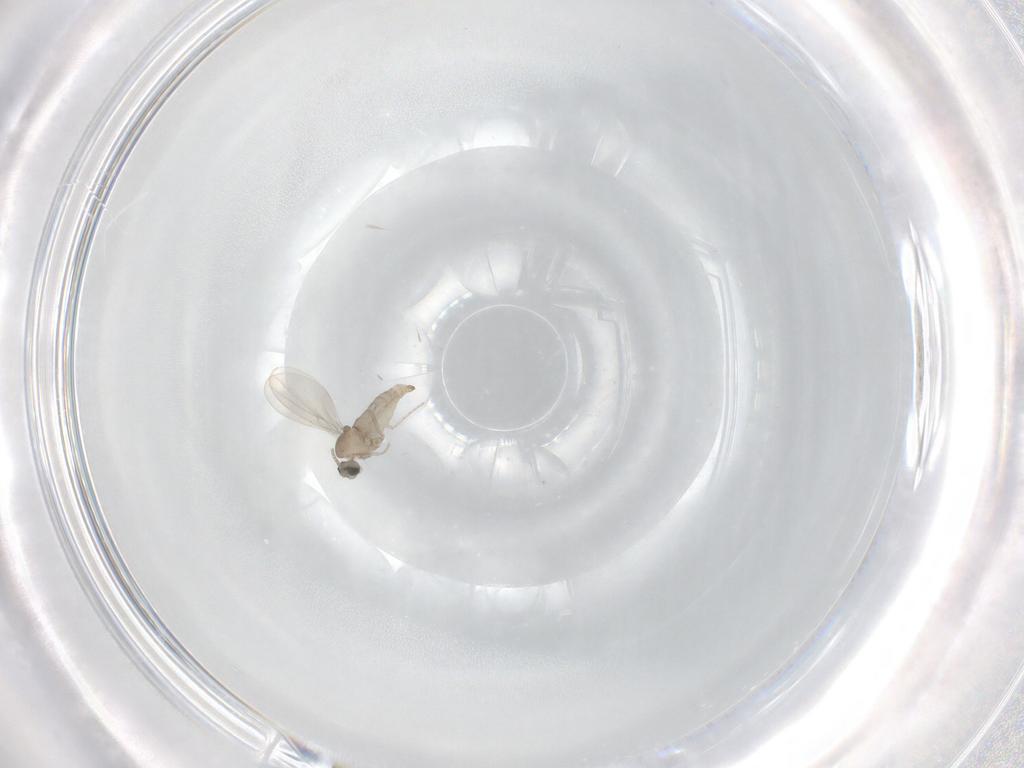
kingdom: Animalia
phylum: Arthropoda
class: Insecta
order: Diptera
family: Cecidomyiidae
